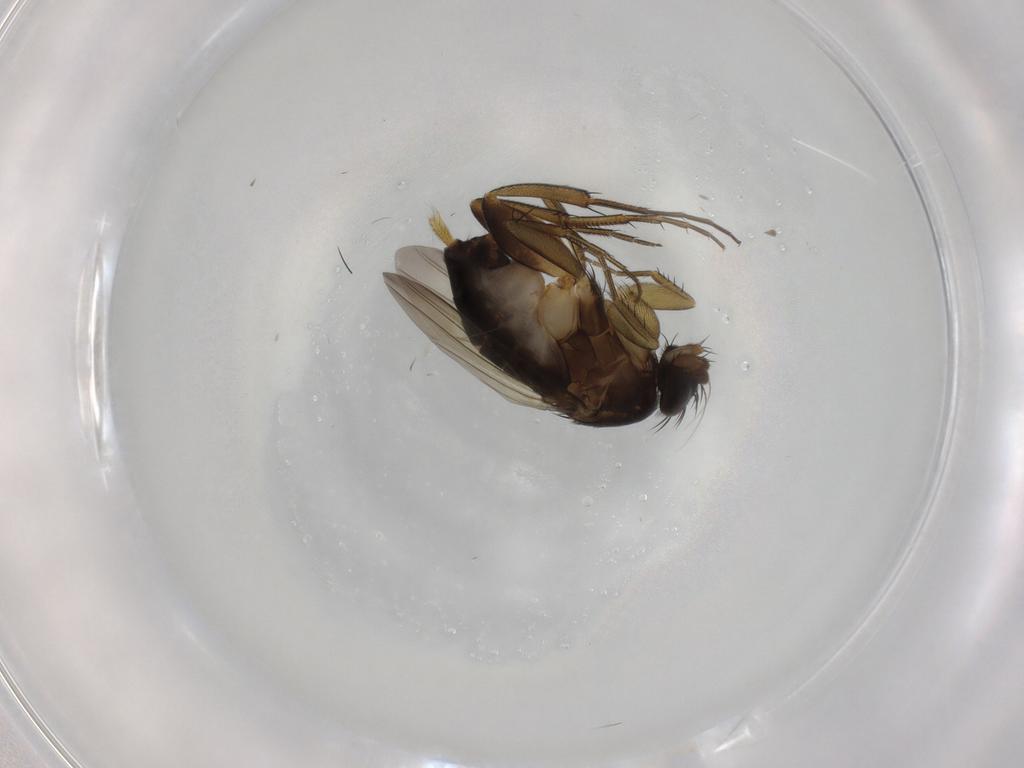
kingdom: Animalia
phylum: Arthropoda
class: Insecta
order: Diptera
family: Phoridae
